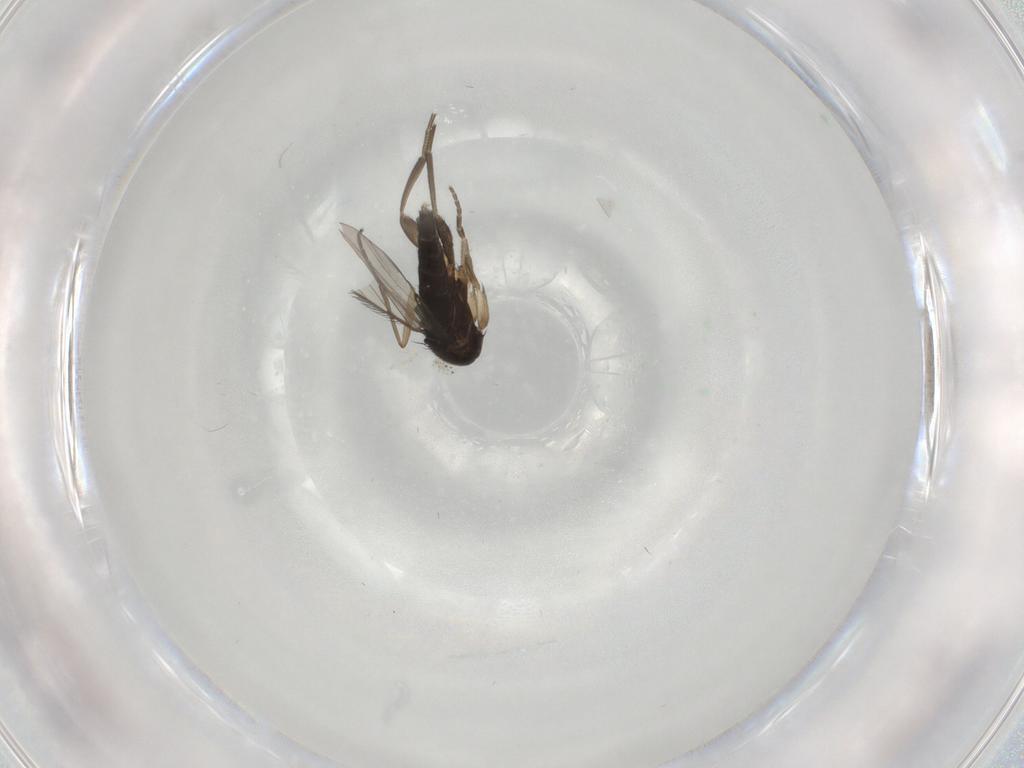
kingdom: Animalia
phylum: Arthropoda
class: Insecta
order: Diptera
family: Phoridae
